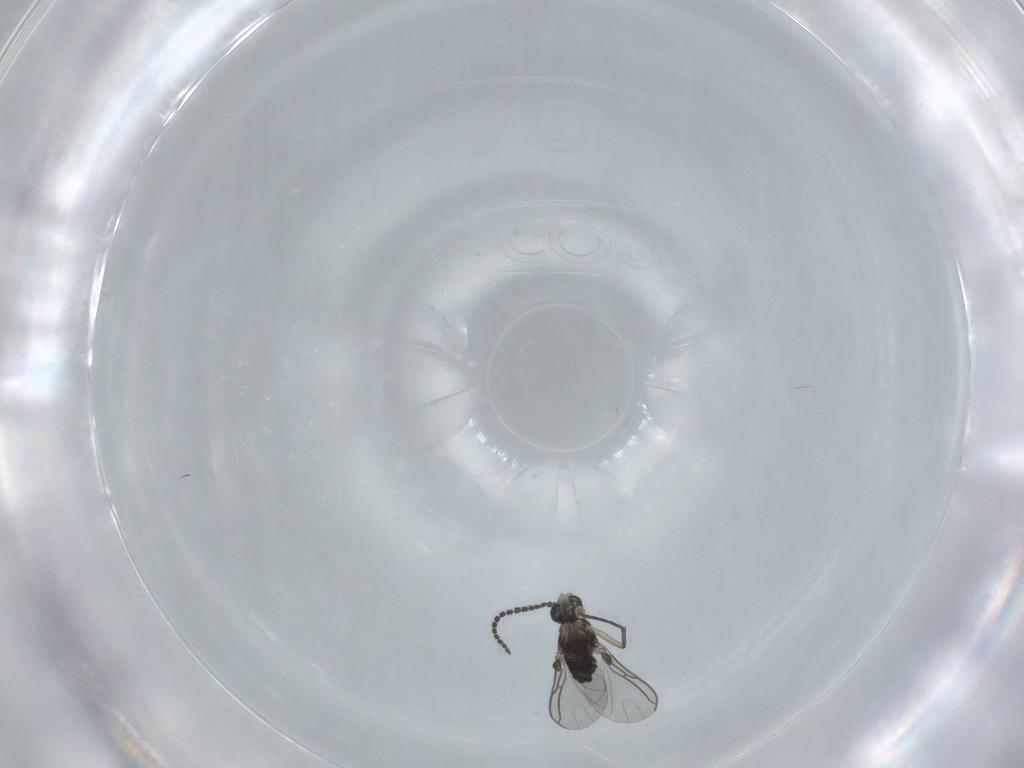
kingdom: Animalia
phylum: Arthropoda
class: Insecta
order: Diptera
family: Sciaridae
